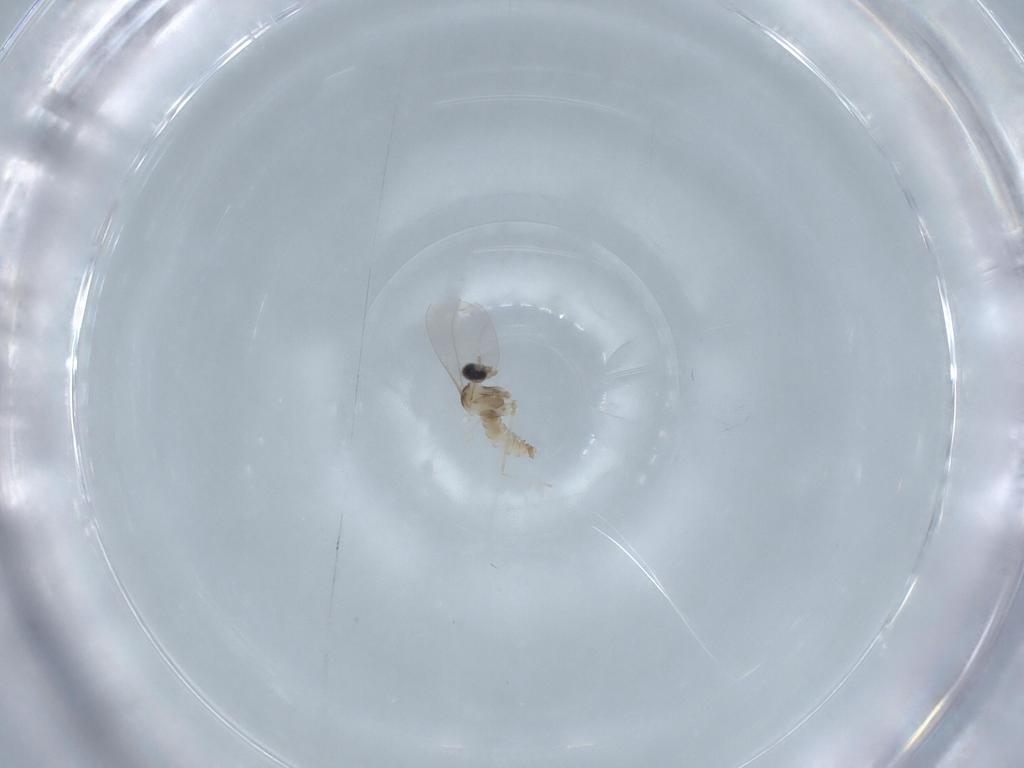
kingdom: Animalia
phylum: Arthropoda
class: Insecta
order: Diptera
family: Cecidomyiidae
